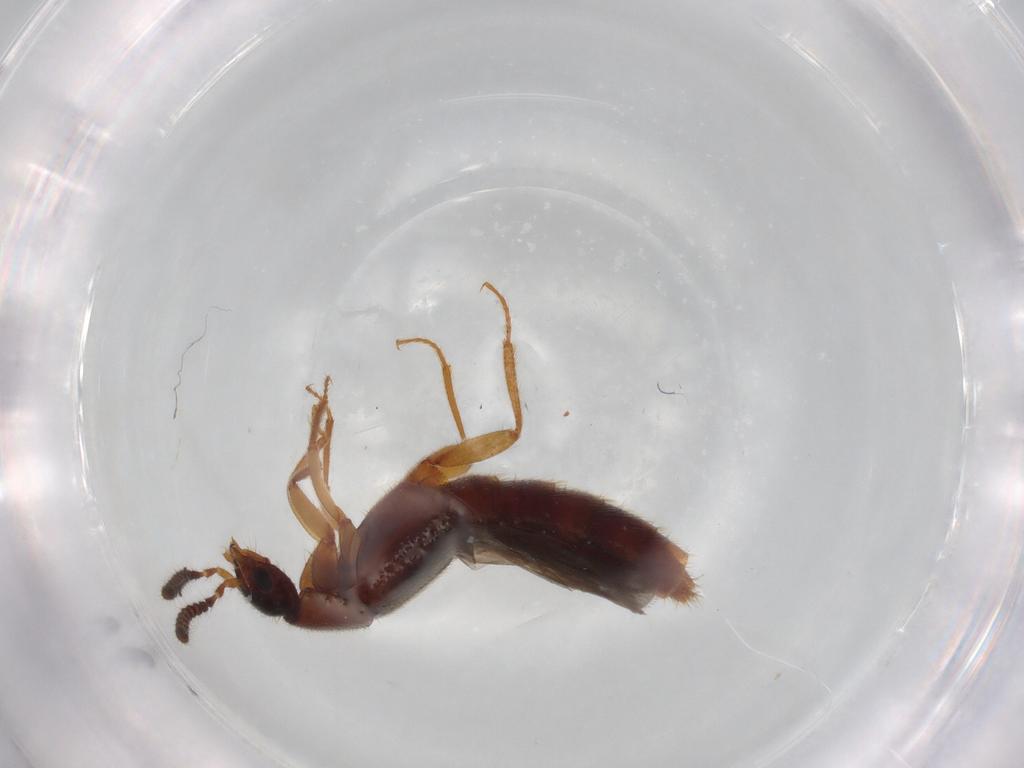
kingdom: Animalia
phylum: Arthropoda
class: Insecta
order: Coleoptera
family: Staphylinidae
